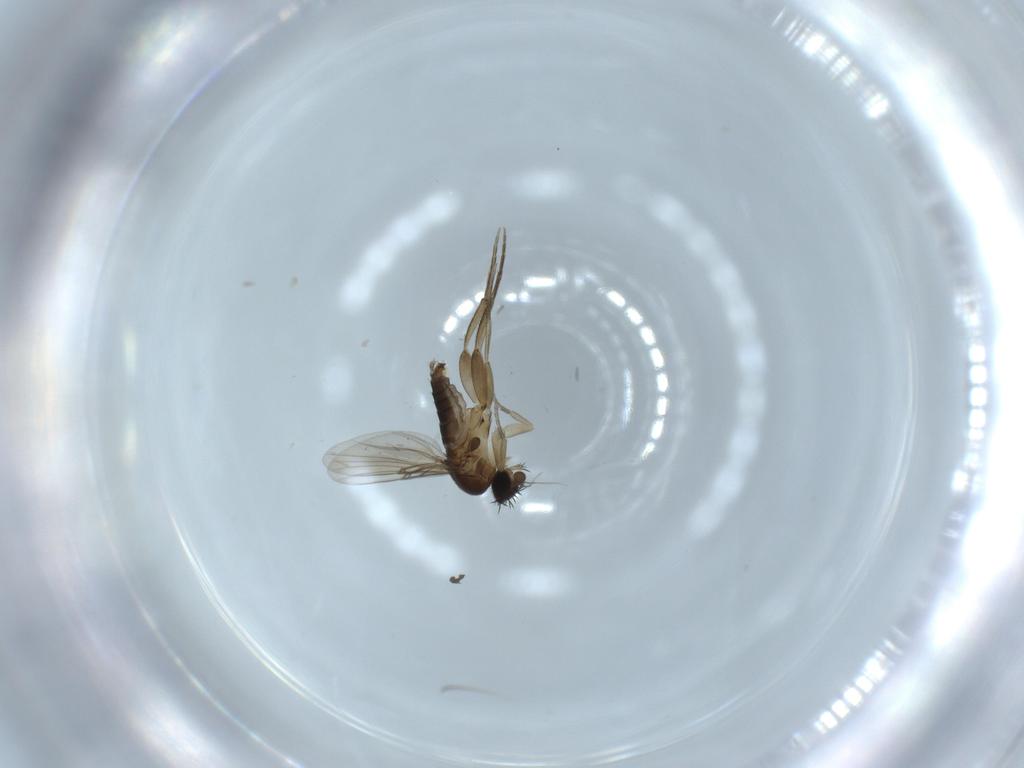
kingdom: Animalia
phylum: Arthropoda
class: Insecta
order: Diptera
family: Phoridae
